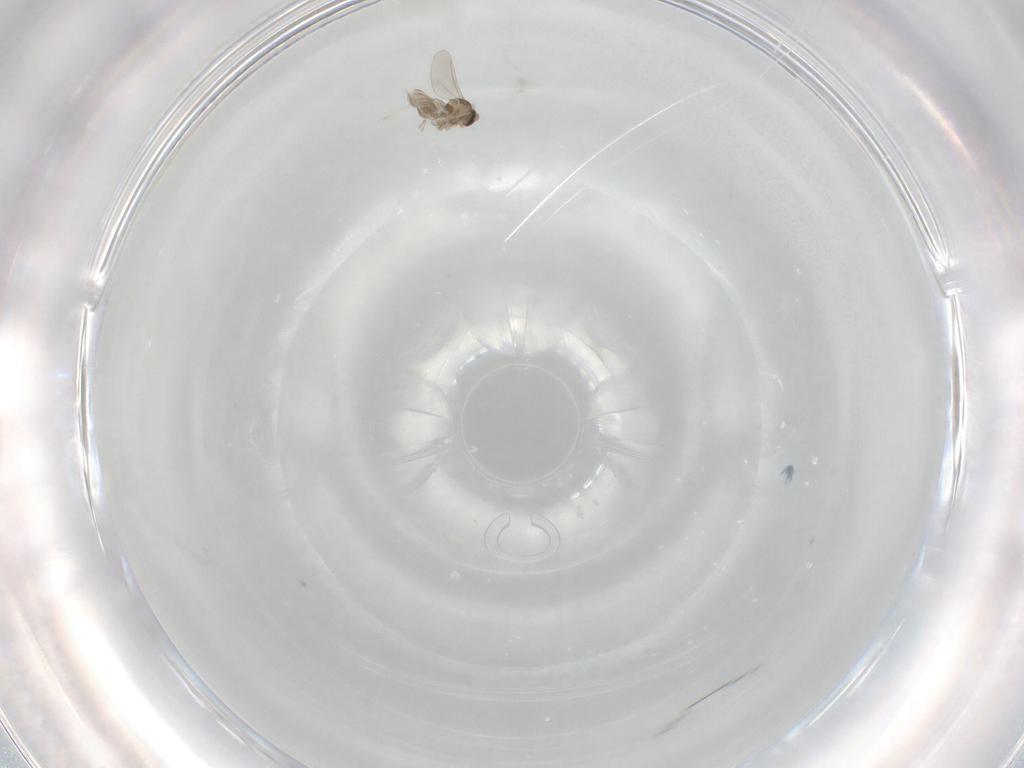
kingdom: Animalia
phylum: Arthropoda
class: Insecta
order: Diptera
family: Cecidomyiidae
